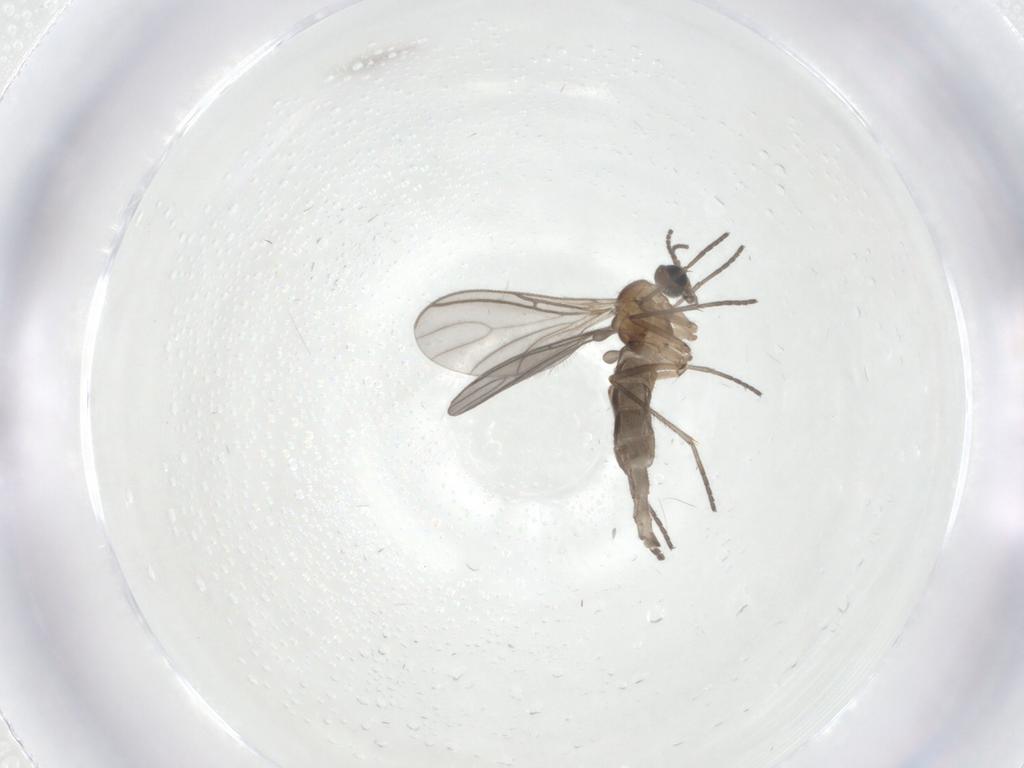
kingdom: Animalia
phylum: Arthropoda
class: Insecta
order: Diptera
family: Sciaridae
